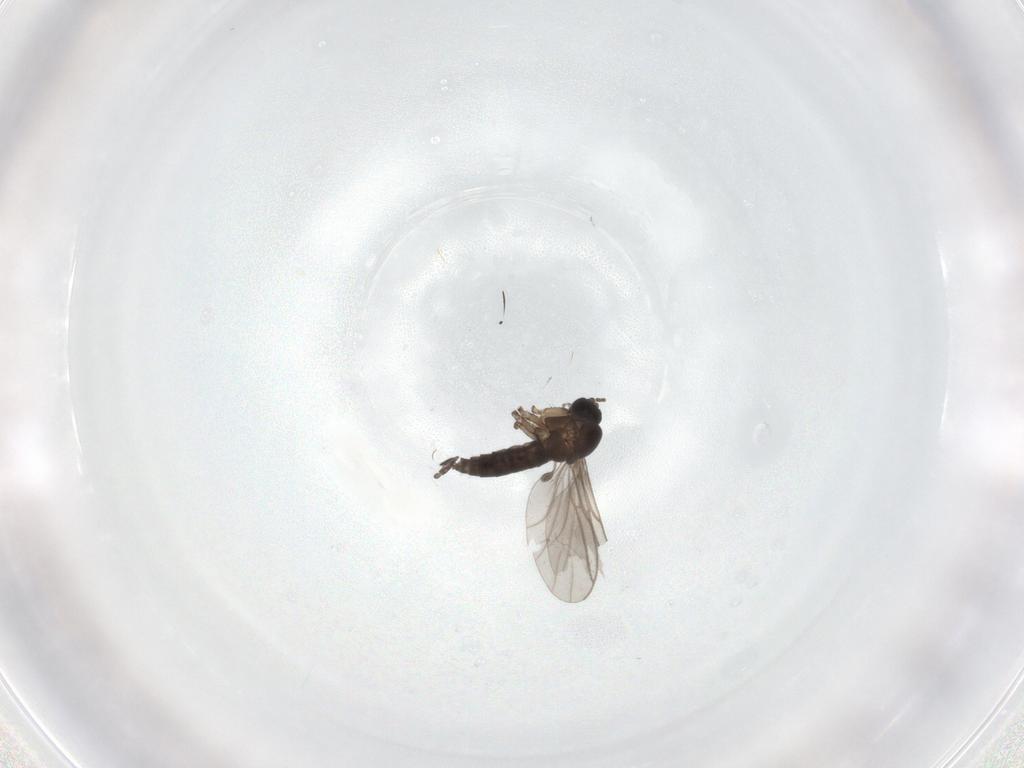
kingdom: Animalia
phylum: Arthropoda
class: Insecta
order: Diptera
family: Sciaridae
